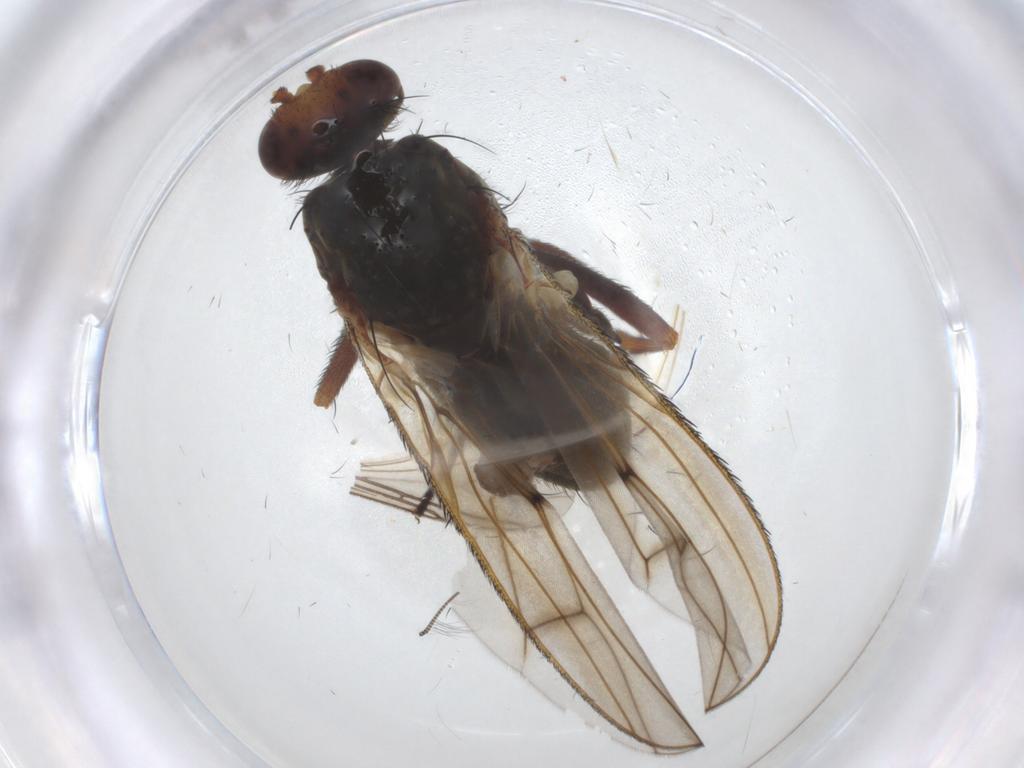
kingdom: Animalia
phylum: Arthropoda
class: Insecta
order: Diptera
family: Heleomyzidae
